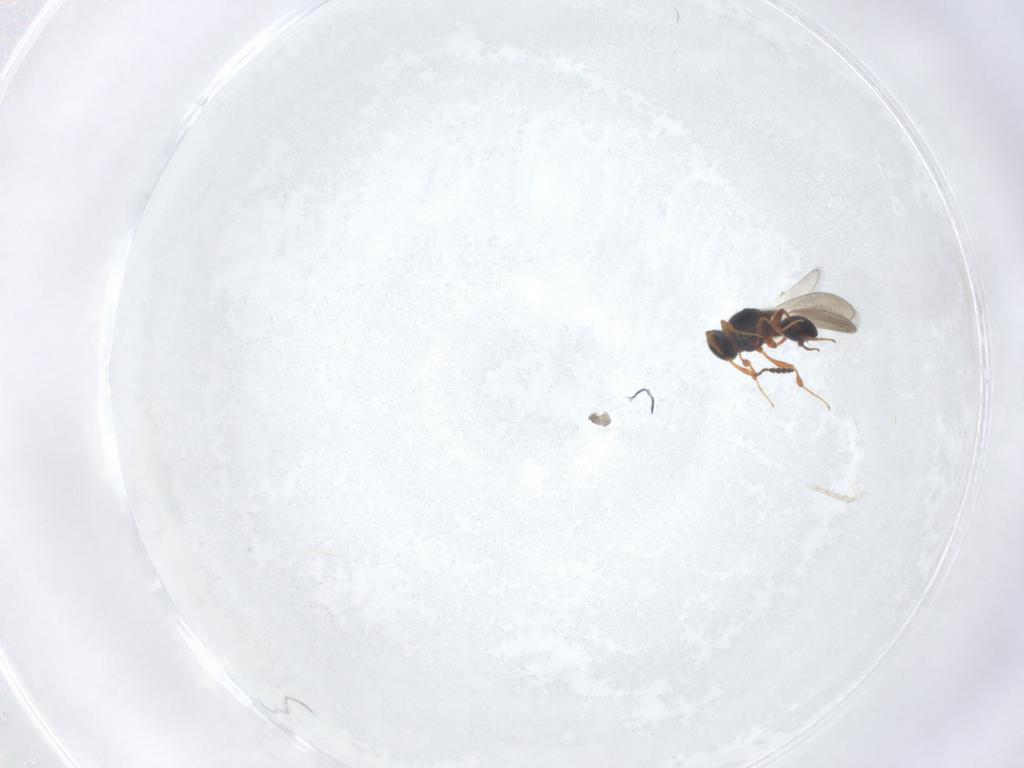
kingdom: Animalia
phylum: Arthropoda
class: Insecta
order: Hymenoptera
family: Platygastridae
